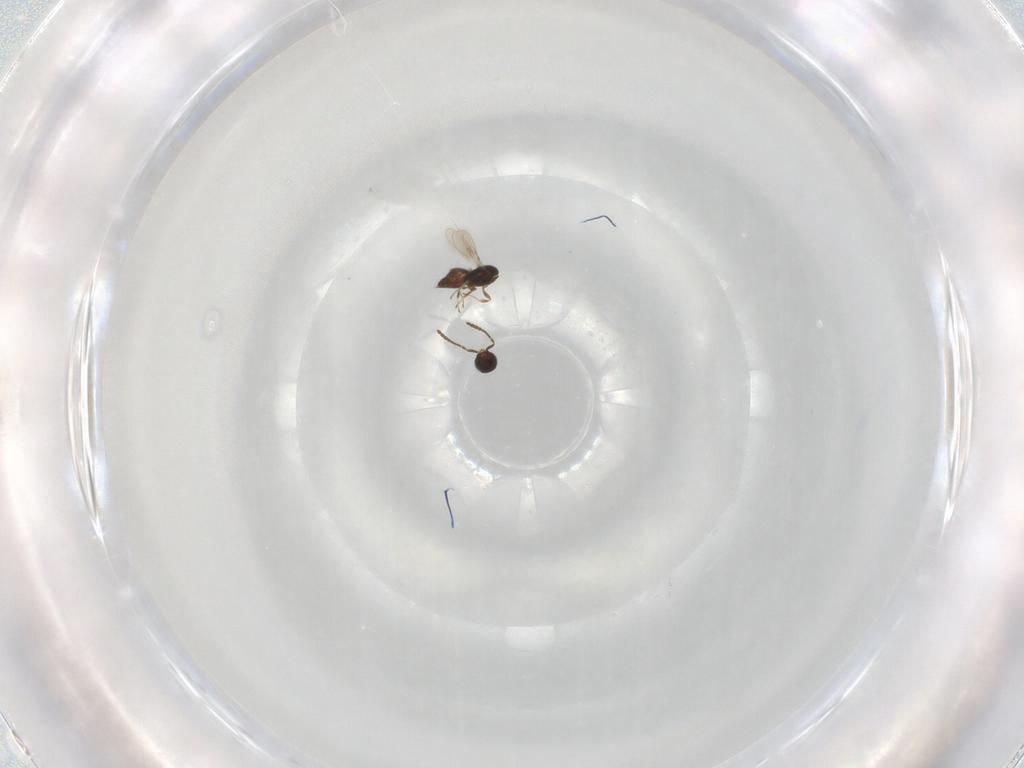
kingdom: Animalia
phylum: Arthropoda
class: Insecta
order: Hymenoptera
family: Scelionidae
